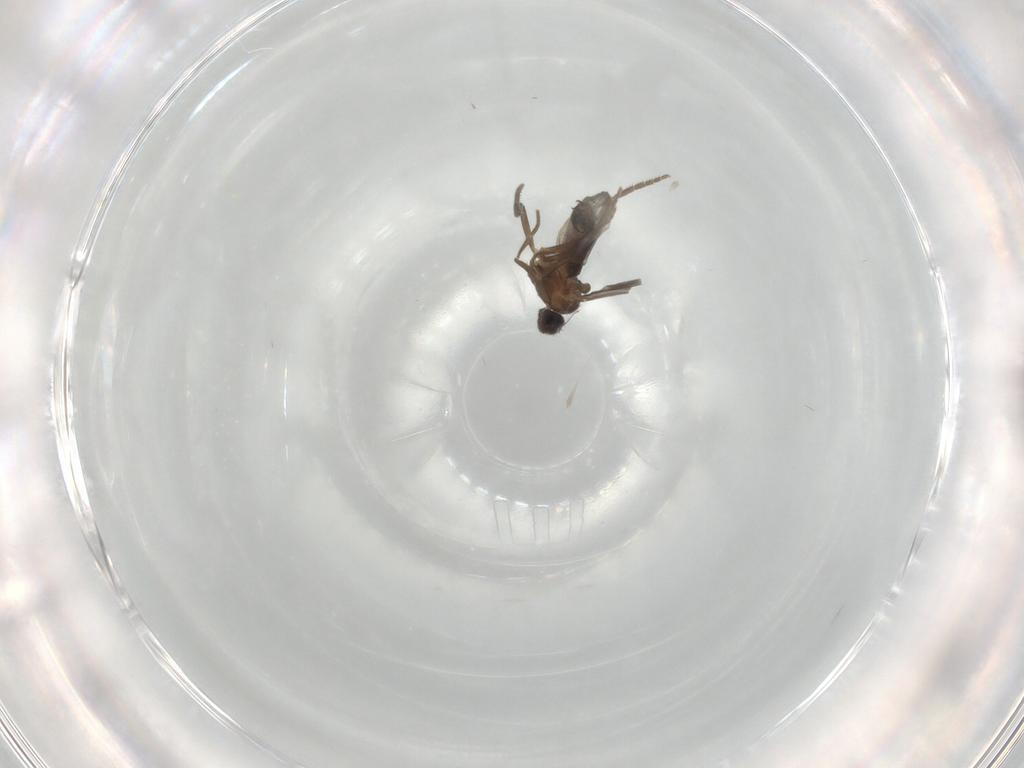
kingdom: Animalia
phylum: Arthropoda
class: Insecta
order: Diptera
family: Phoridae
